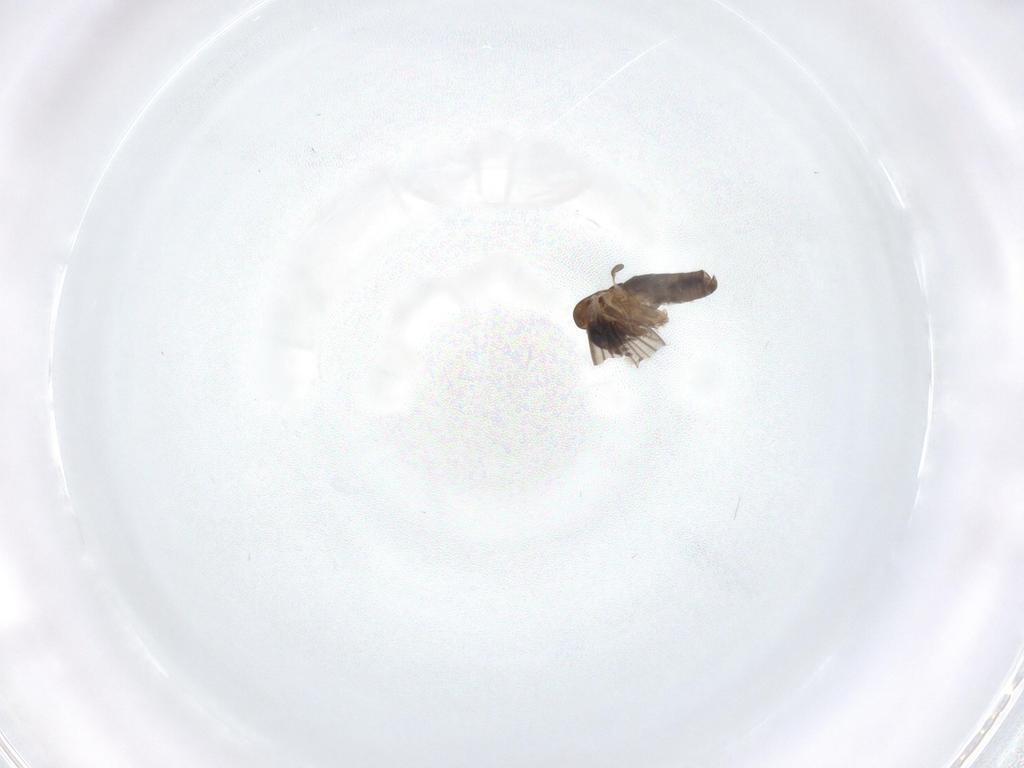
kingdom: Animalia
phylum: Arthropoda
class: Insecta
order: Diptera
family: Psychodidae
